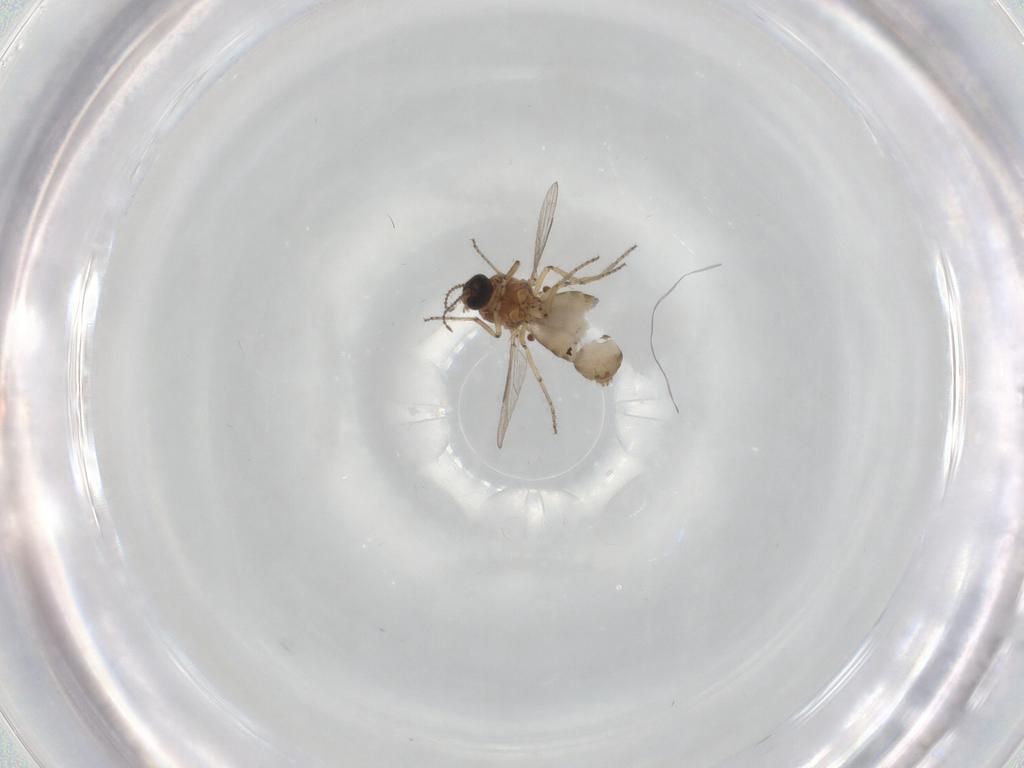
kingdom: Animalia
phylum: Arthropoda
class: Insecta
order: Diptera
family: Ceratopogonidae
